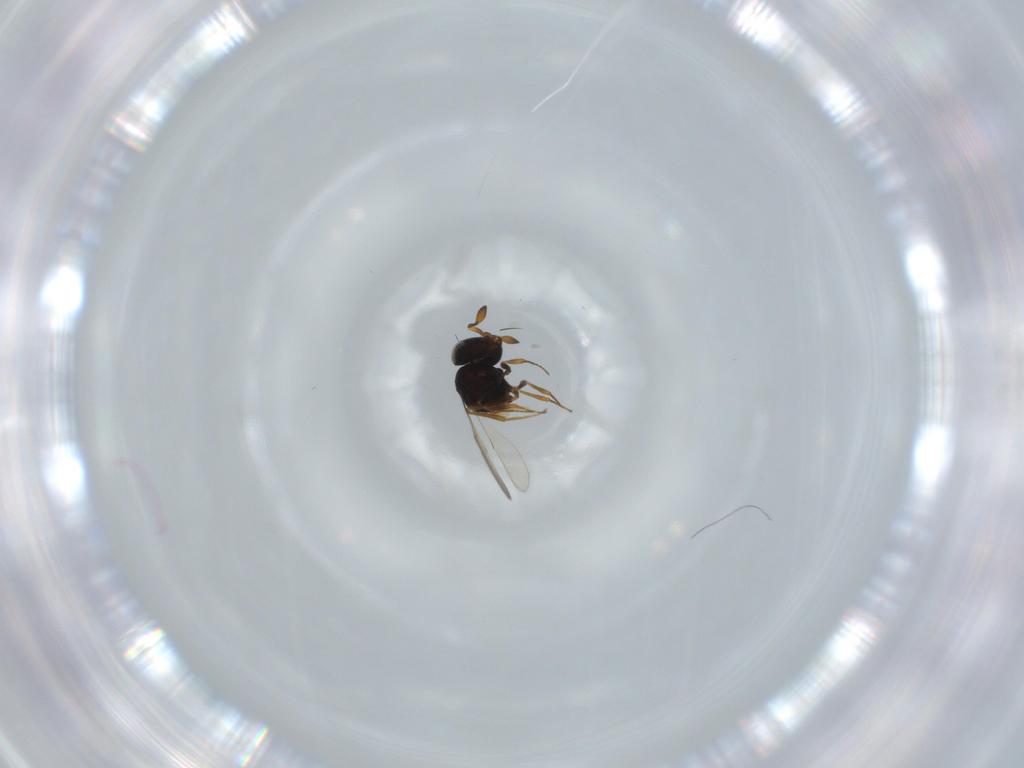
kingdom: Animalia
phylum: Arthropoda
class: Insecta
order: Hymenoptera
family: Scelionidae
